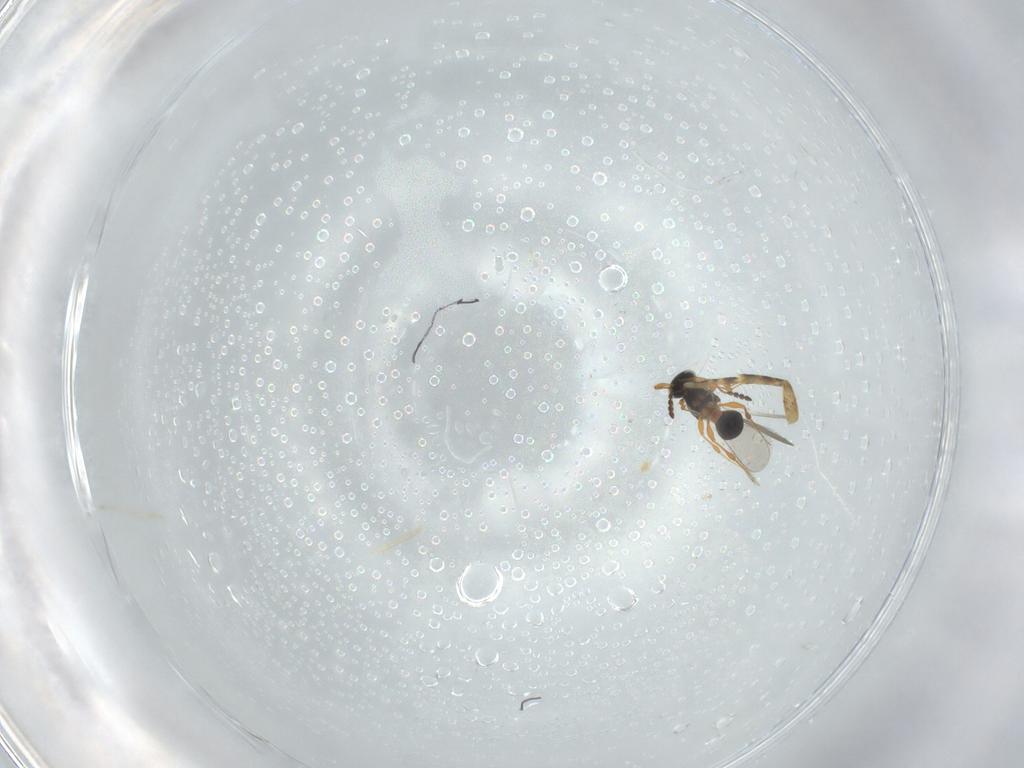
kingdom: Animalia
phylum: Arthropoda
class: Insecta
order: Hymenoptera
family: Platygastridae
